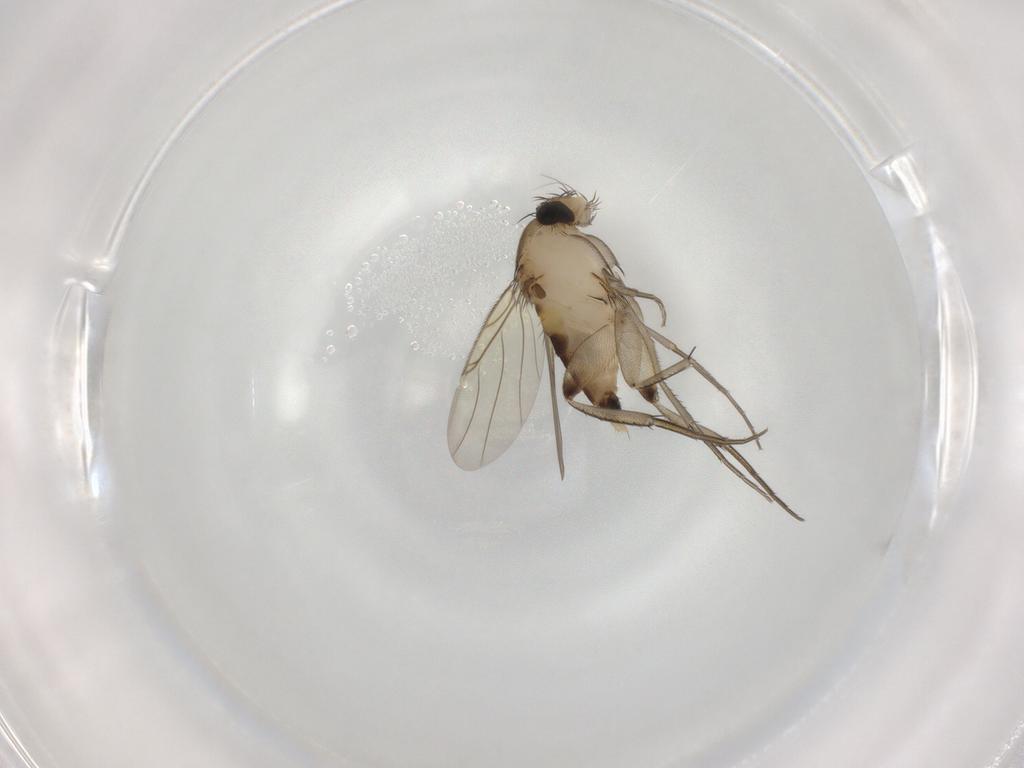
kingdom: Animalia
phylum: Arthropoda
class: Insecta
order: Diptera
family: Phoridae
